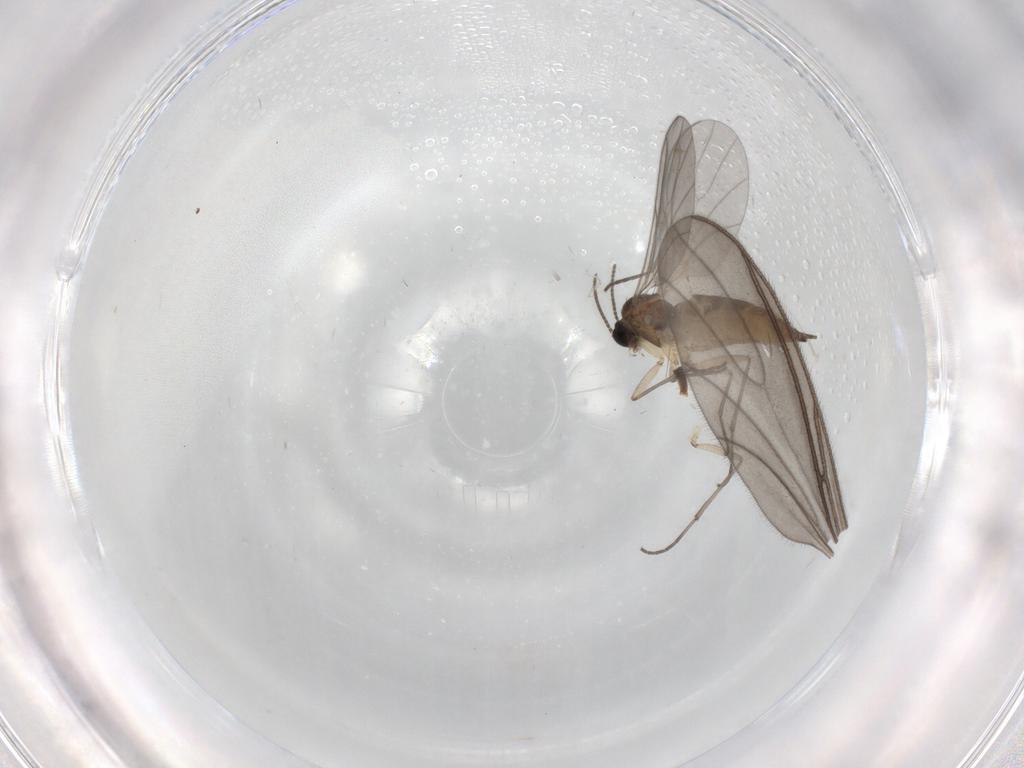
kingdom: Animalia
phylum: Arthropoda
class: Insecta
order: Diptera
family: Sciaridae
